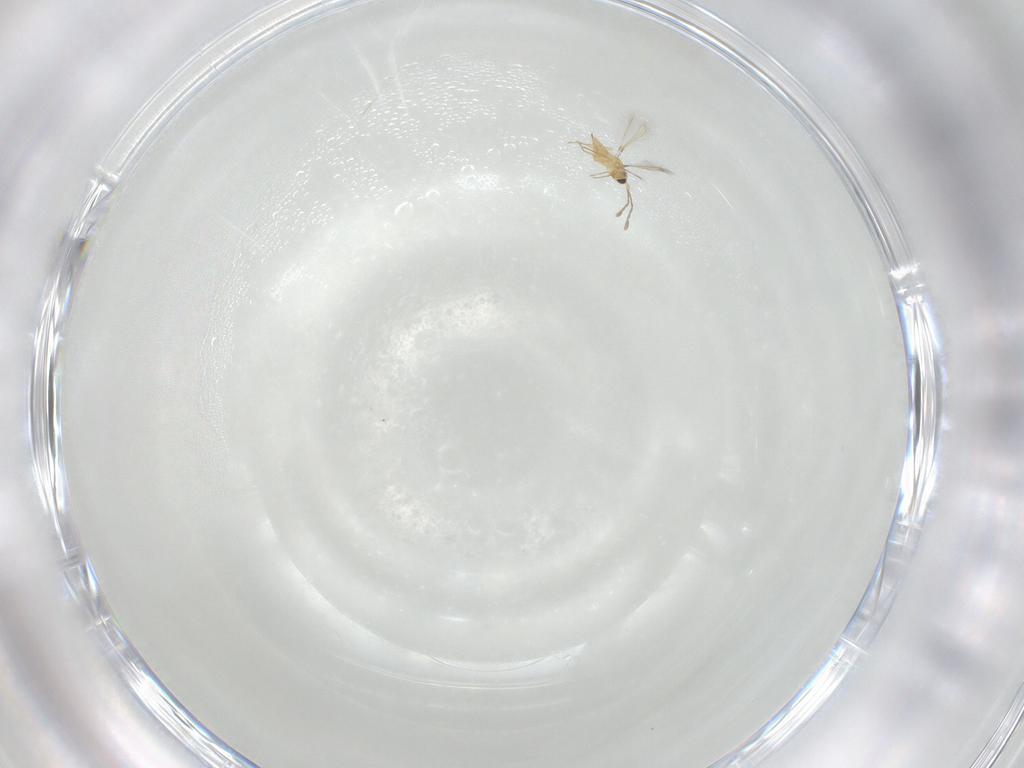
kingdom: Animalia
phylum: Arthropoda
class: Insecta
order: Hymenoptera
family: Mymaridae
